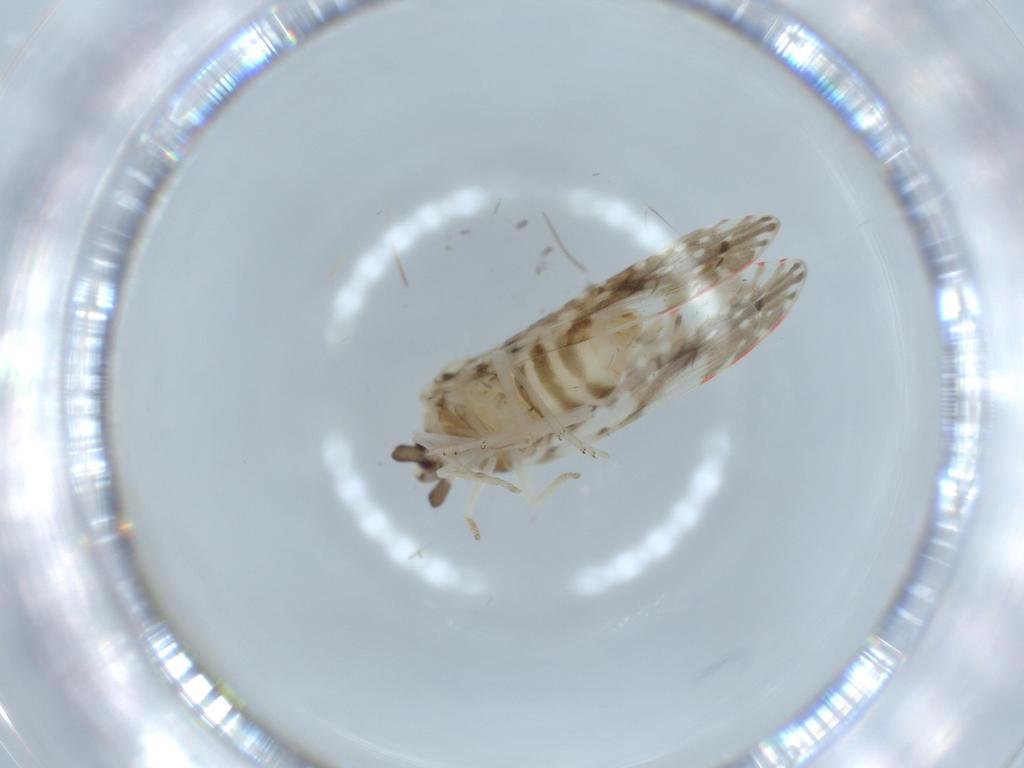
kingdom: Animalia
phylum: Arthropoda
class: Insecta
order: Hemiptera
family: Derbidae
